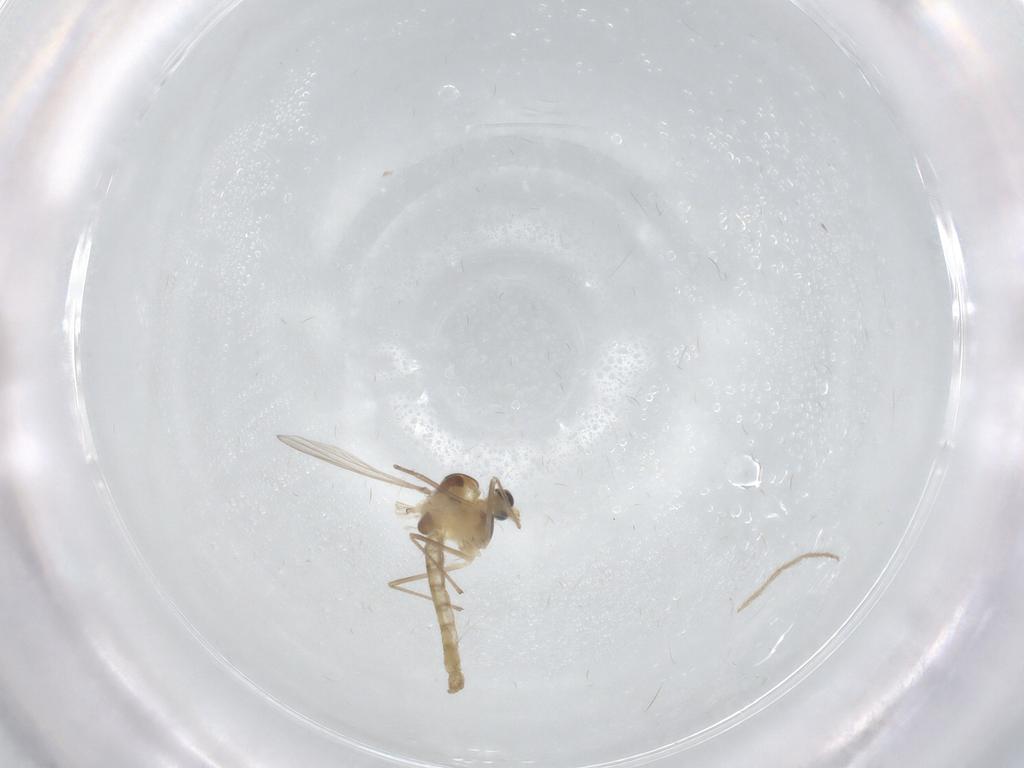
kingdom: Animalia
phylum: Arthropoda
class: Insecta
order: Diptera
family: Chironomidae
